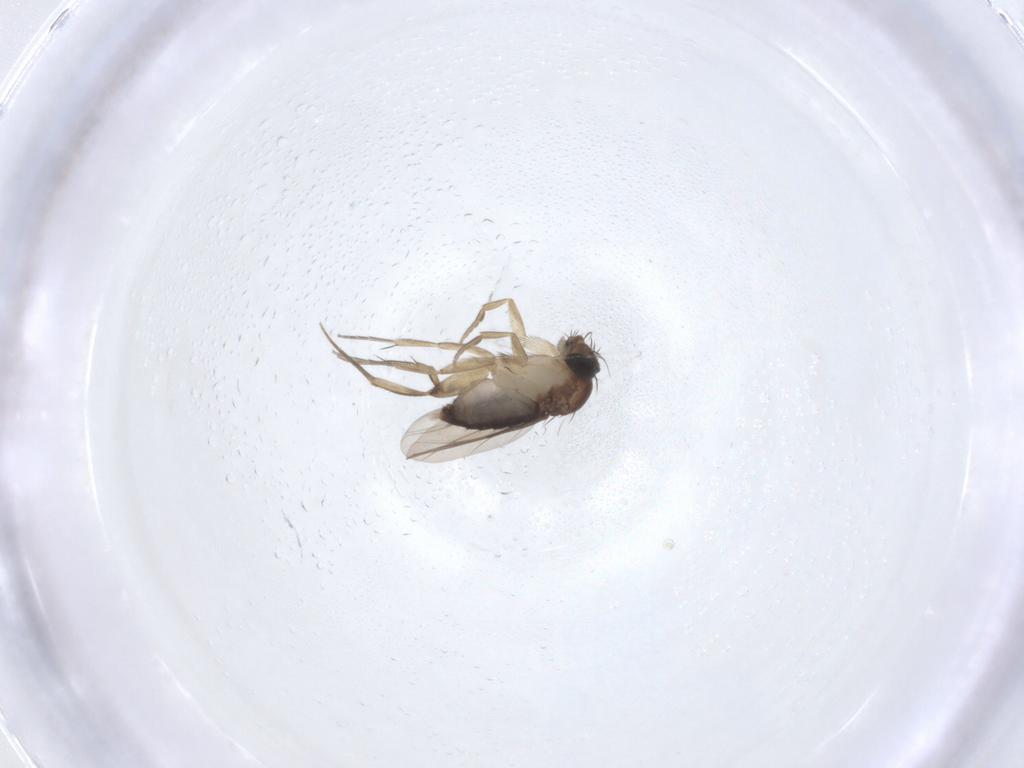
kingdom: Animalia
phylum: Arthropoda
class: Insecta
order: Diptera
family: Phoridae
